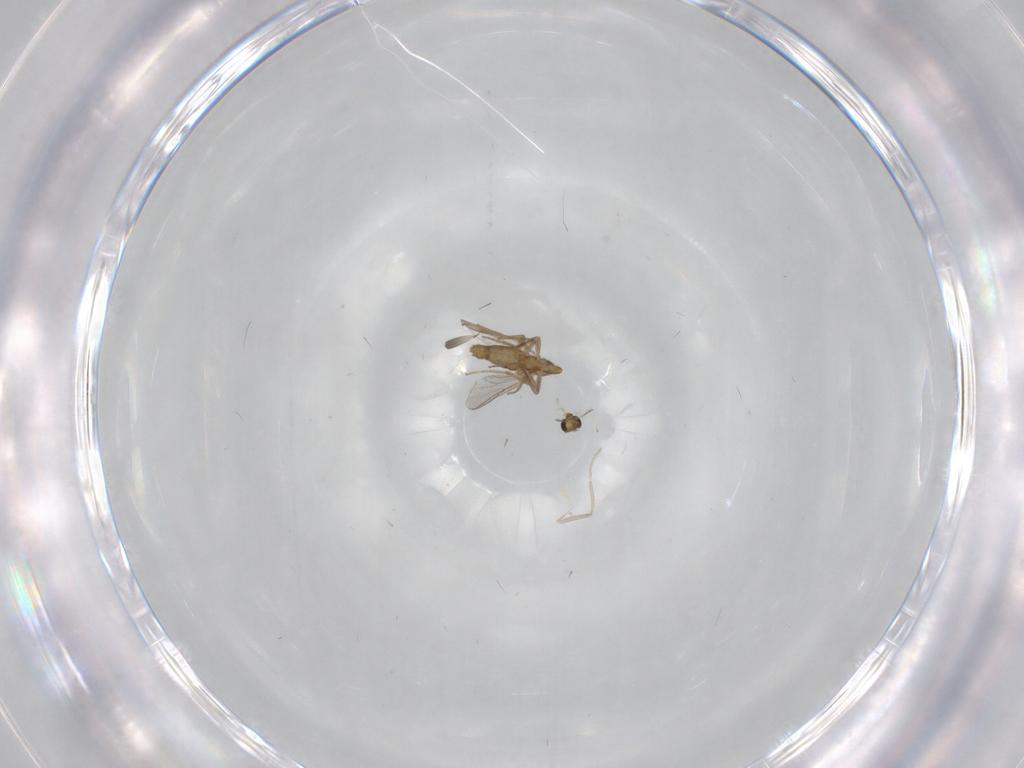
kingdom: Animalia
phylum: Arthropoda
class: Insecta
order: Diptera
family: Chironomidae
